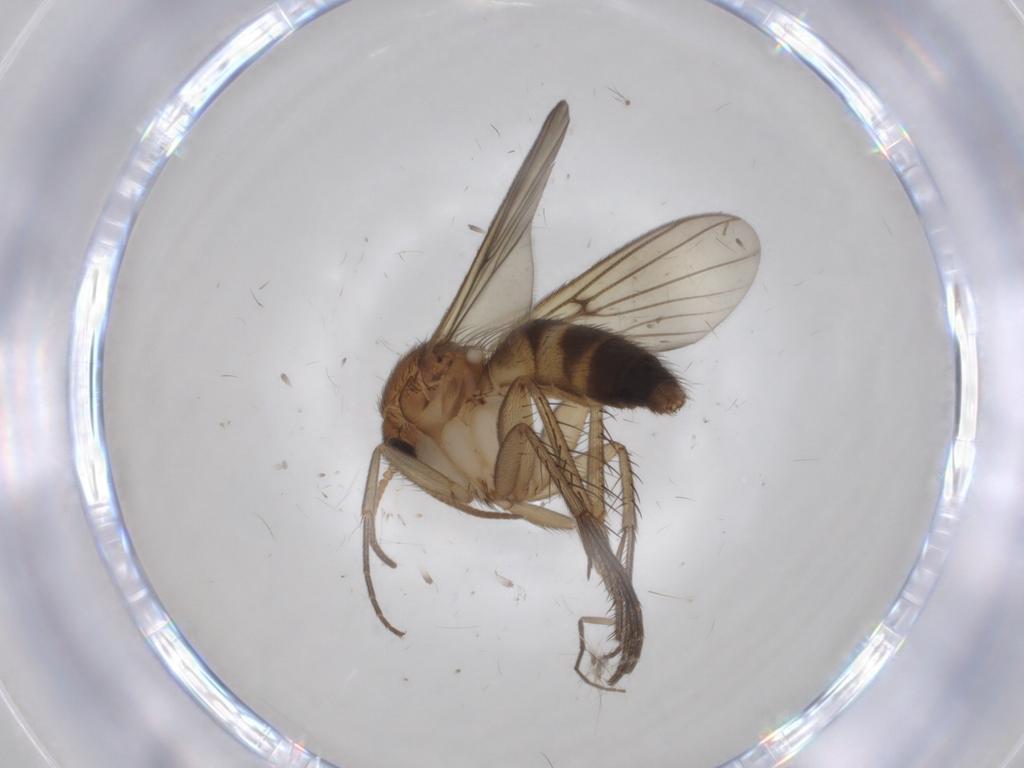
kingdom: Animalia
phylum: Arthropoda
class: Insecta
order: Diptera
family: Mycetophilidae
